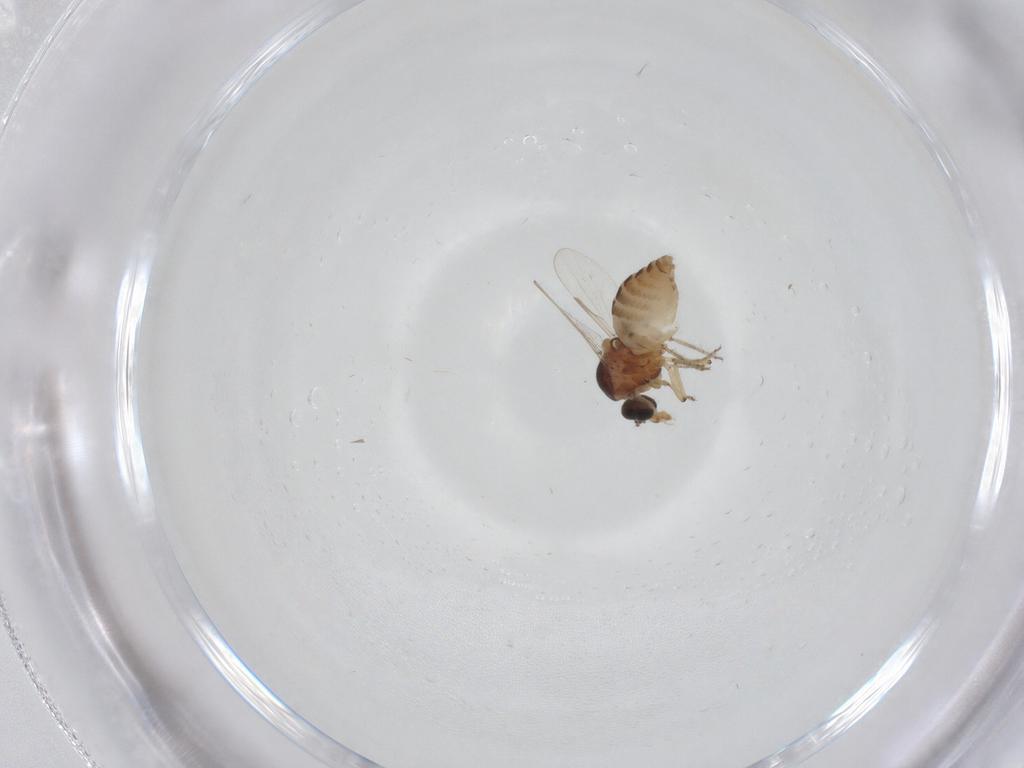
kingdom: Animalia
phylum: Arthropoda
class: Insecta
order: Diptera
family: Ceratopogonidae
